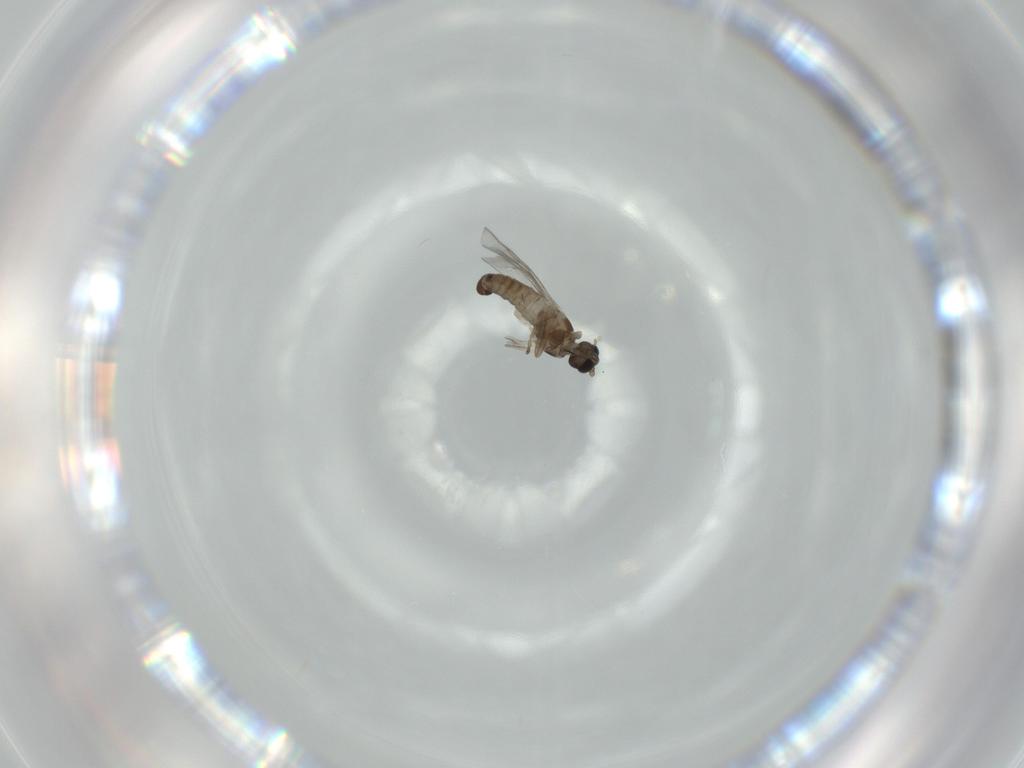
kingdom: Animalia
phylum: Arthropoda
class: Insecta
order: Diptera
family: Cecidomyiidae
